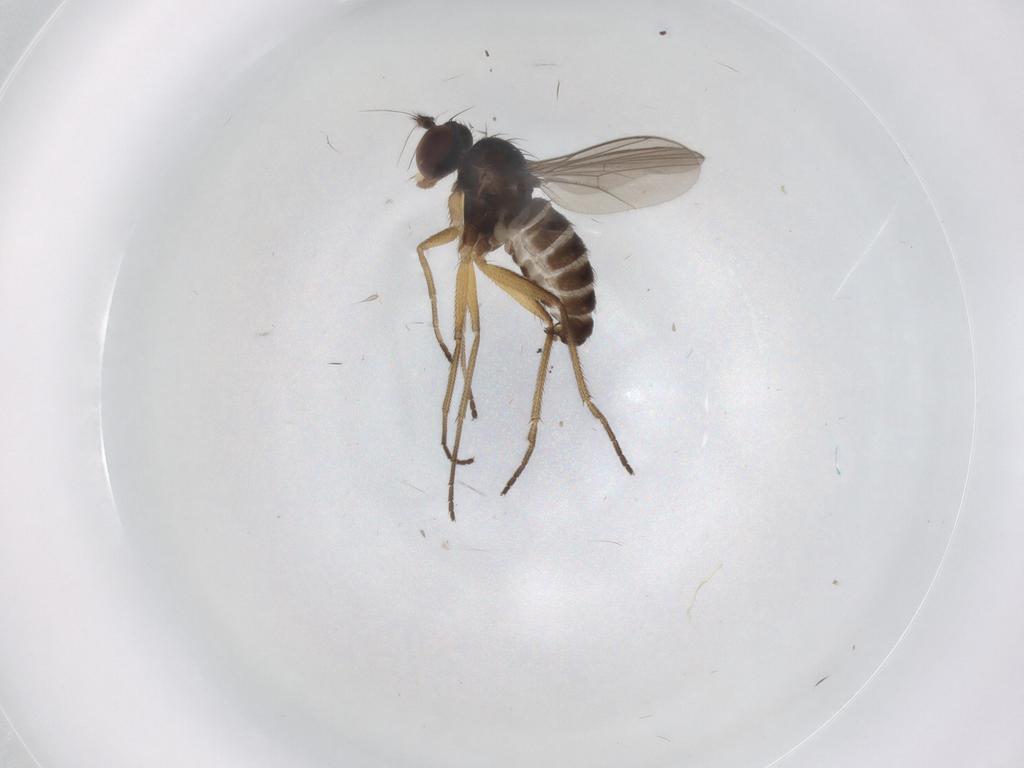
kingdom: Animalia
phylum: Arthropoda
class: Insecta
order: Diptera
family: Dolichopodidae
